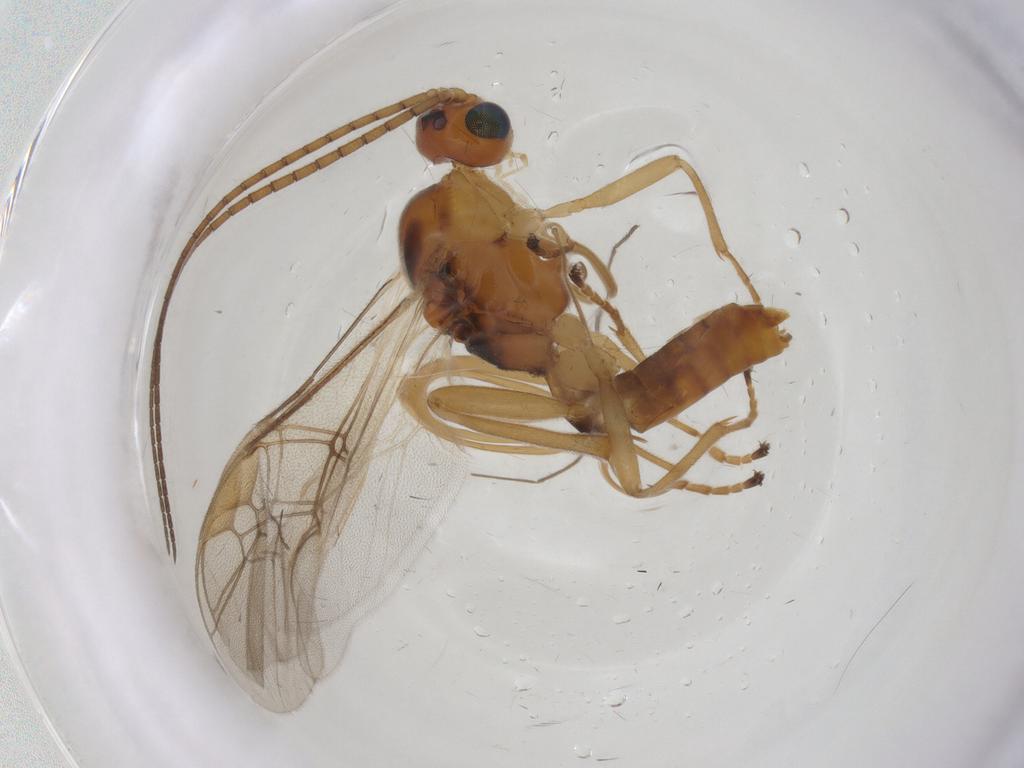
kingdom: Animalia
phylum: Arthropoda
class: Insecta
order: Hymenoptera
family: Braconidae
